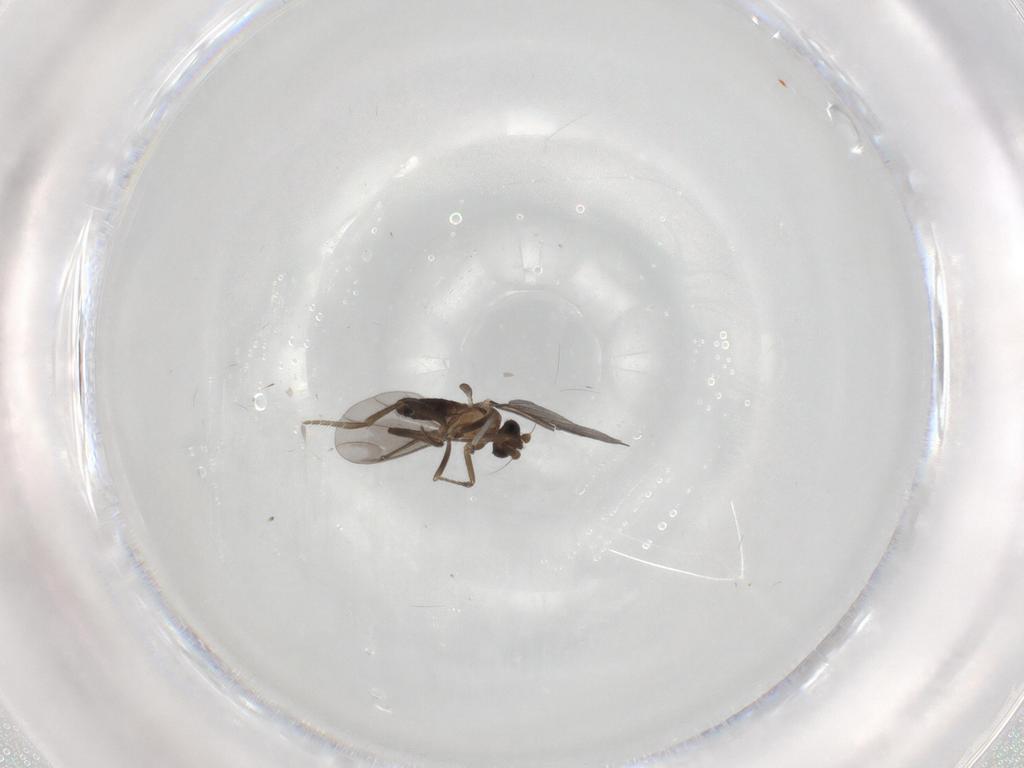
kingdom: Animalia
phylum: Arthropoda
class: Insecta
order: Diptera
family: Phoridae
